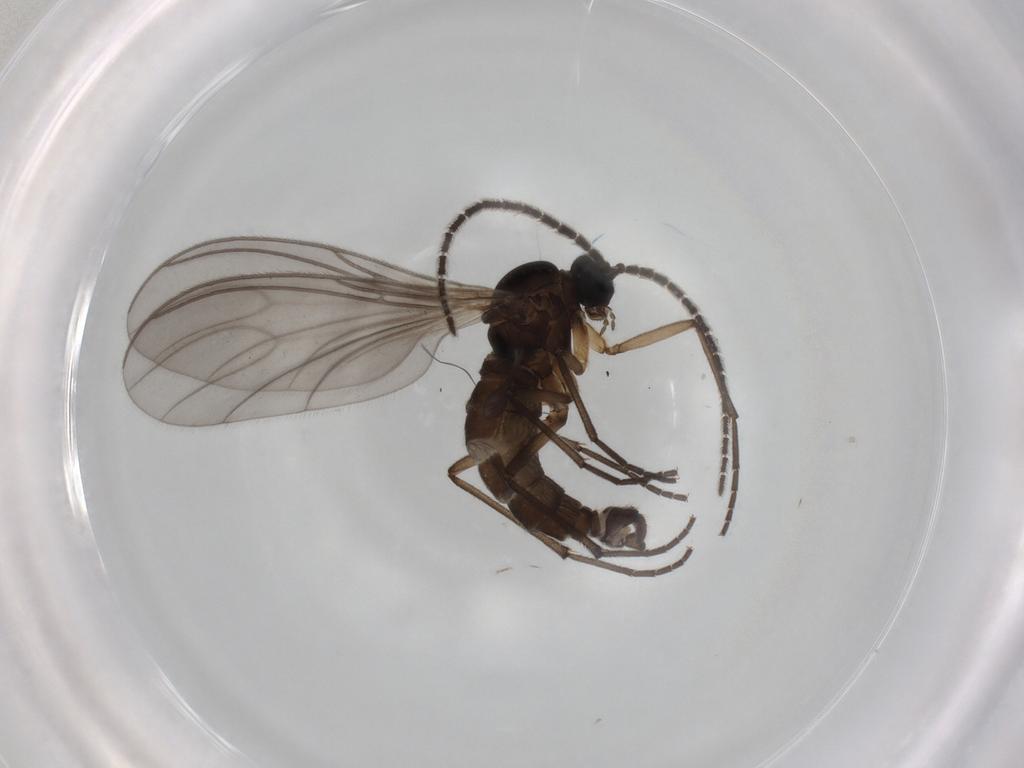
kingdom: Animalia
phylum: Arthropoda
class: Insecta
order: Diptera
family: Sciaridae
